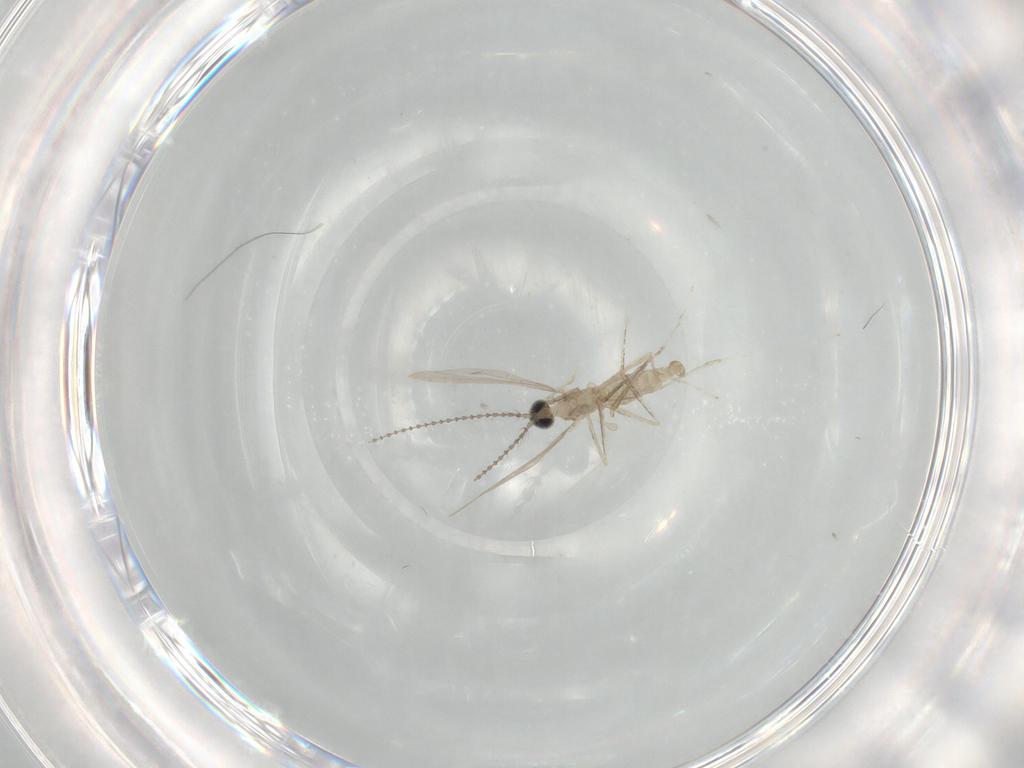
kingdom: Animalia
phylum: Arthropoda
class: Insecta
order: Diptera
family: Cecidomyiidae
